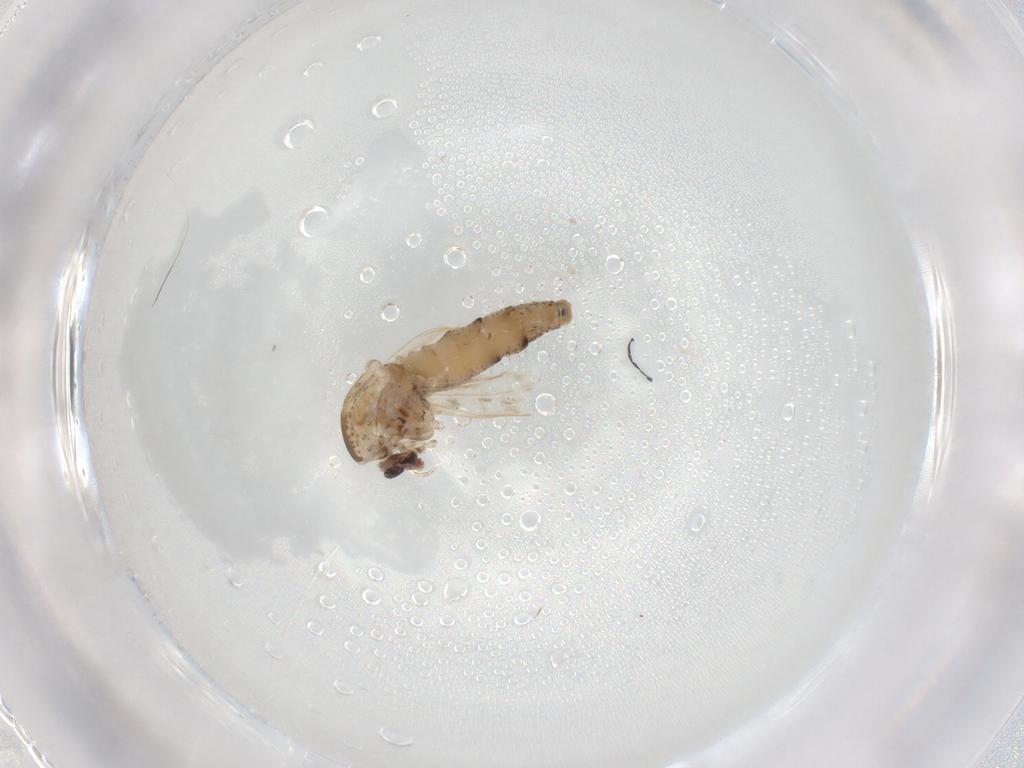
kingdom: Animalia
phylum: Arthropoda
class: Insecta
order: Diptera
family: Chaoboridae
